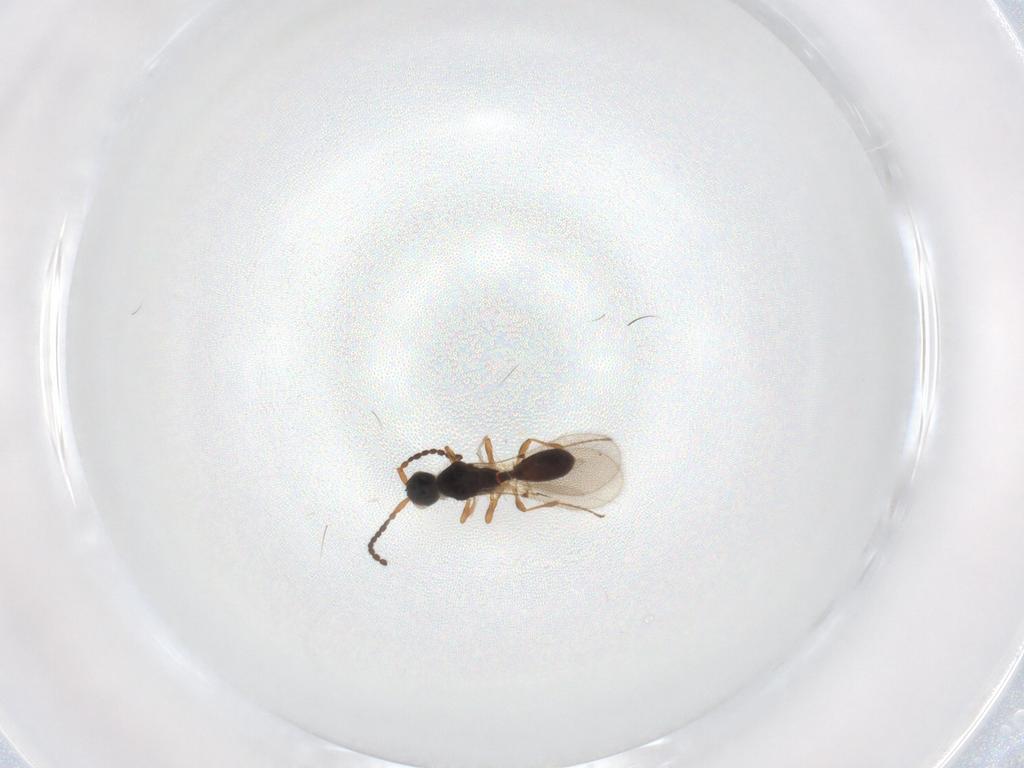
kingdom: Animalia
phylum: Arthropoda
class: Insecta
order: Hymenoptera
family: Diapriidae
